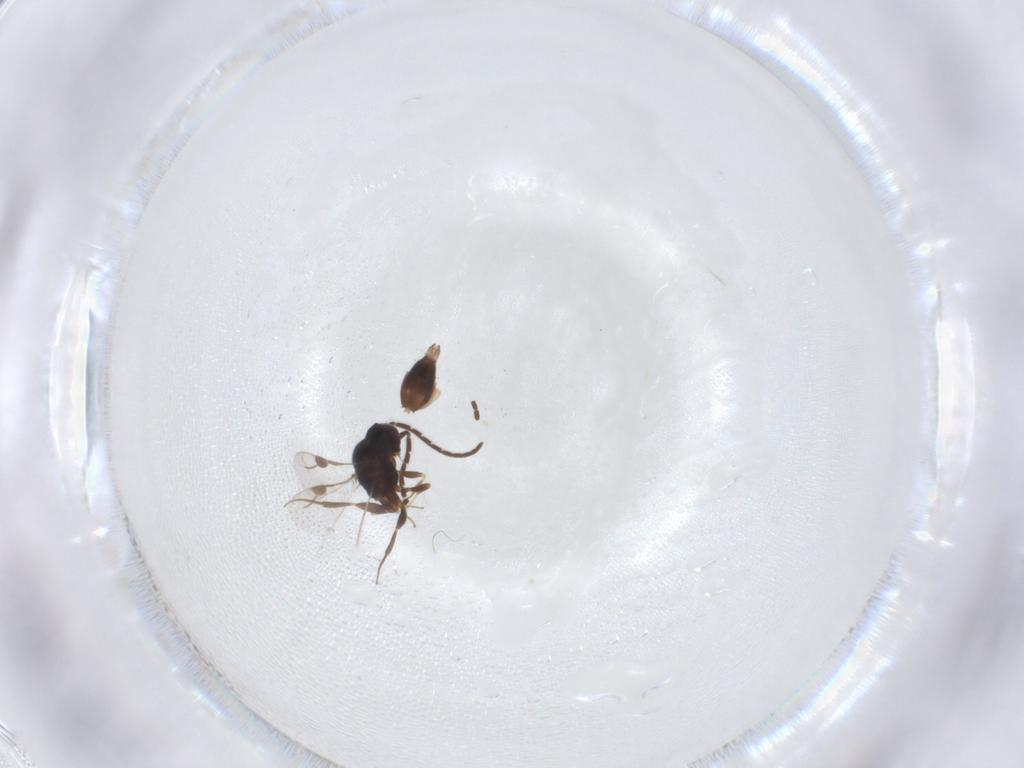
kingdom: Animalia
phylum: Arthropoda
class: Insecta
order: Hymenoptera
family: Megaspilidae
